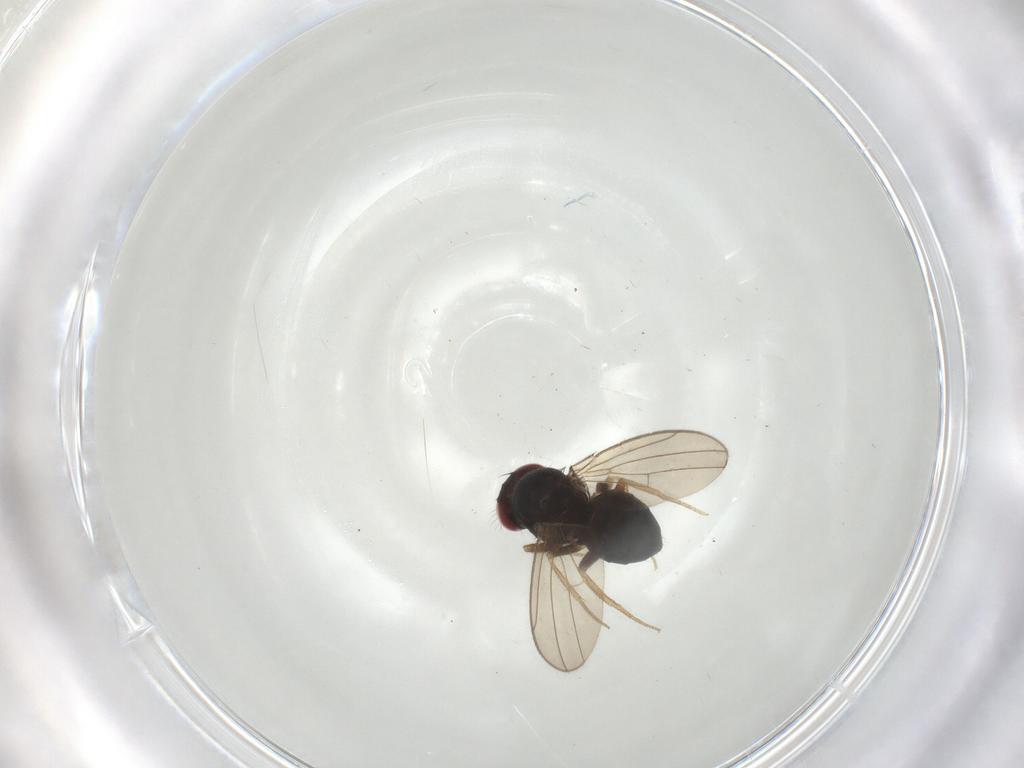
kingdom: Animalia
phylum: Arthropoda
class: Insecta
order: Diptera
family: Drosophilidae
